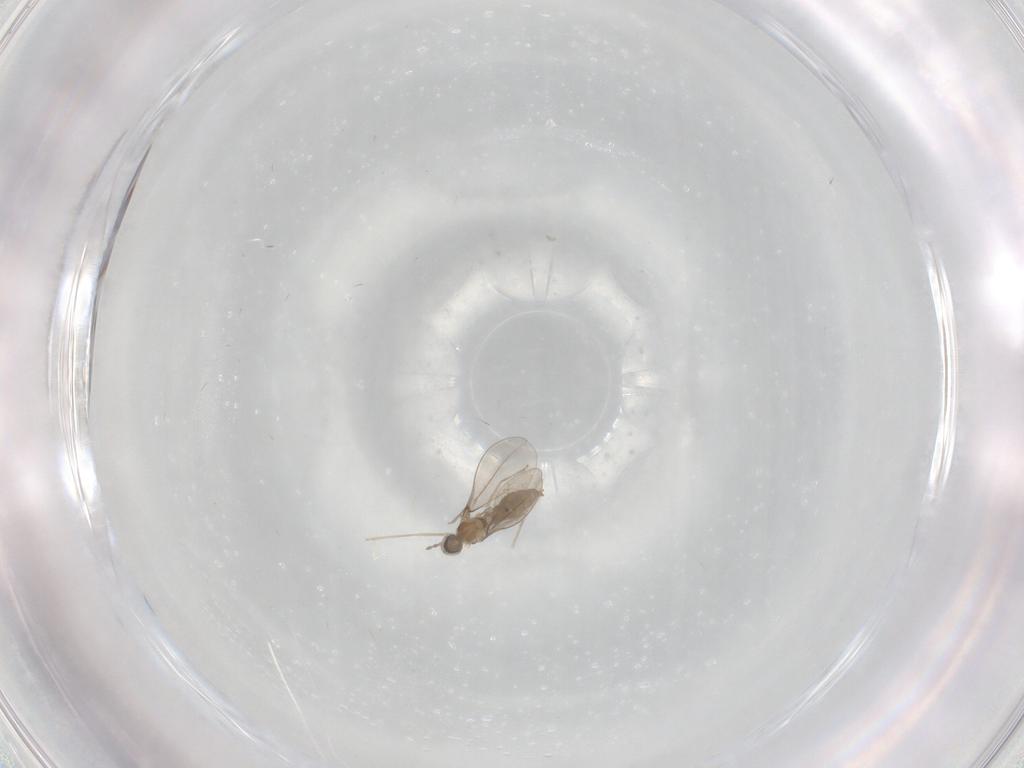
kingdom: Animalia
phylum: Arthropoda
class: Insecta
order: Diptera
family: Cecidomyiidae
